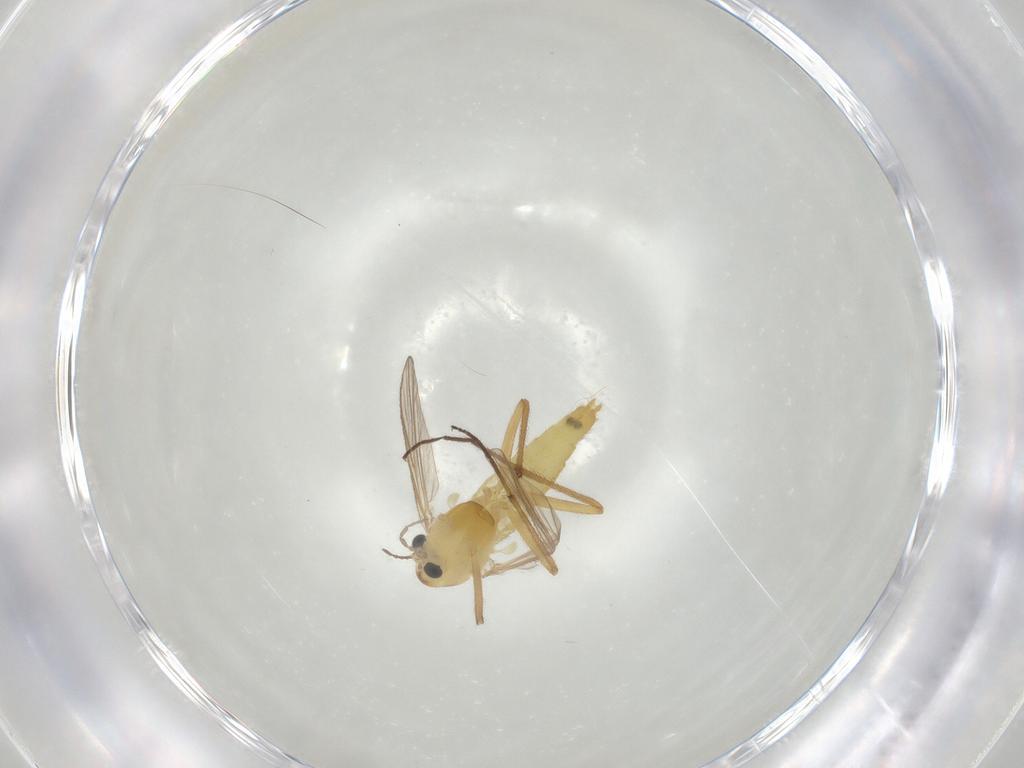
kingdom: Animalia
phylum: Arthropoda
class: Insecta
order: Diptera
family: Chironomidae
